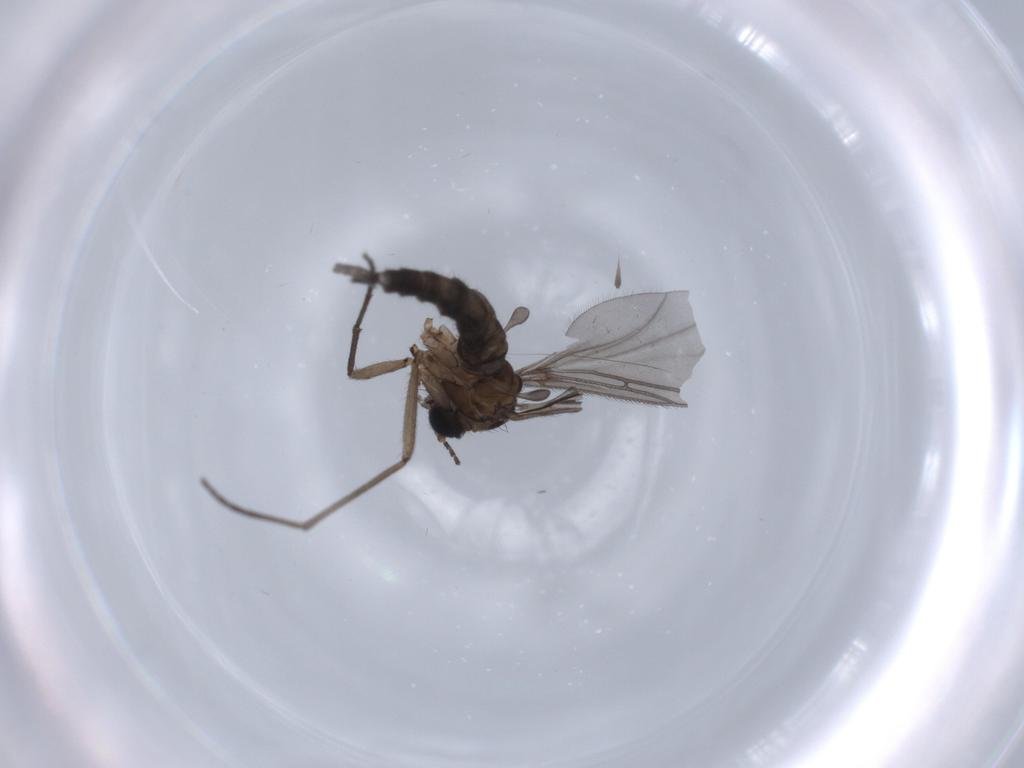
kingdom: Animalia
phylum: Arthropoda
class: Insecta
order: Diptera
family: Sciaridae
